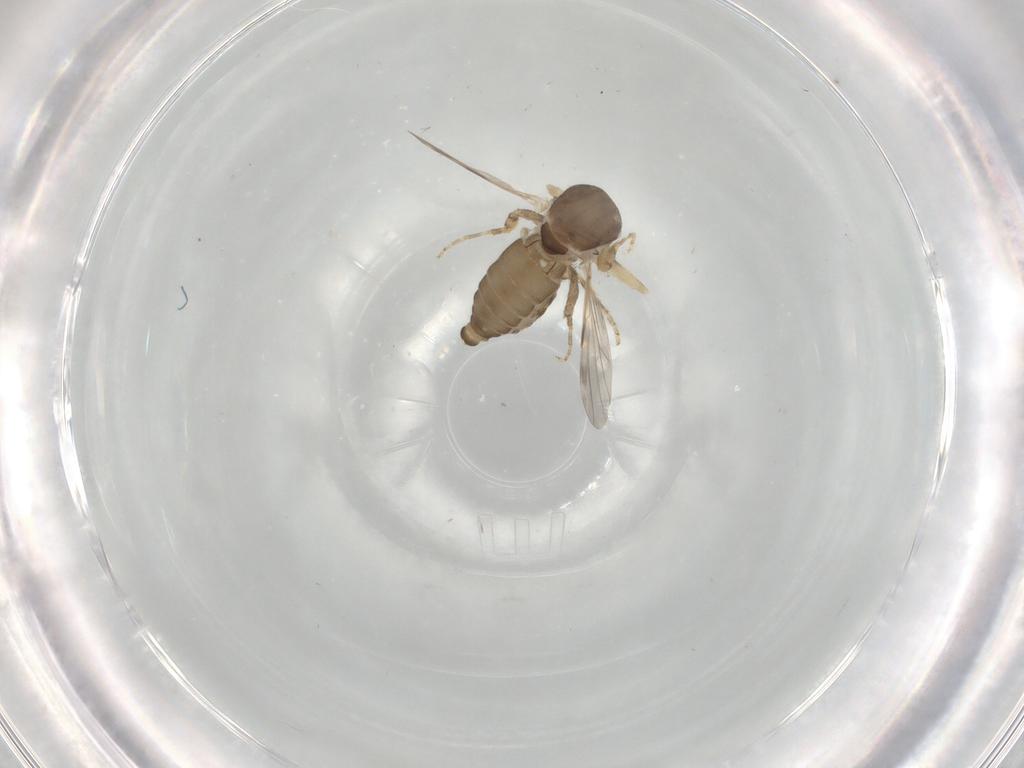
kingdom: Animalia
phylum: Arthropoda
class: Insecta
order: Diptera
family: Ceratopogonidae
